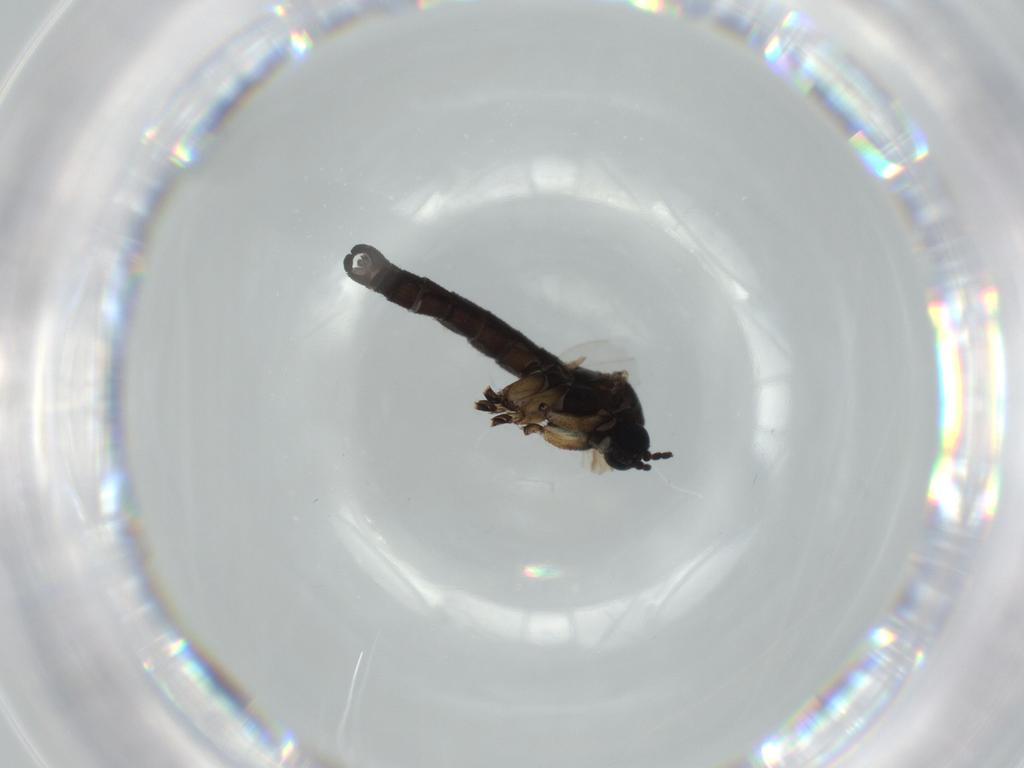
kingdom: Animalia
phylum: Arthropoda
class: Insecta
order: Diptera
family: Sciaridae
